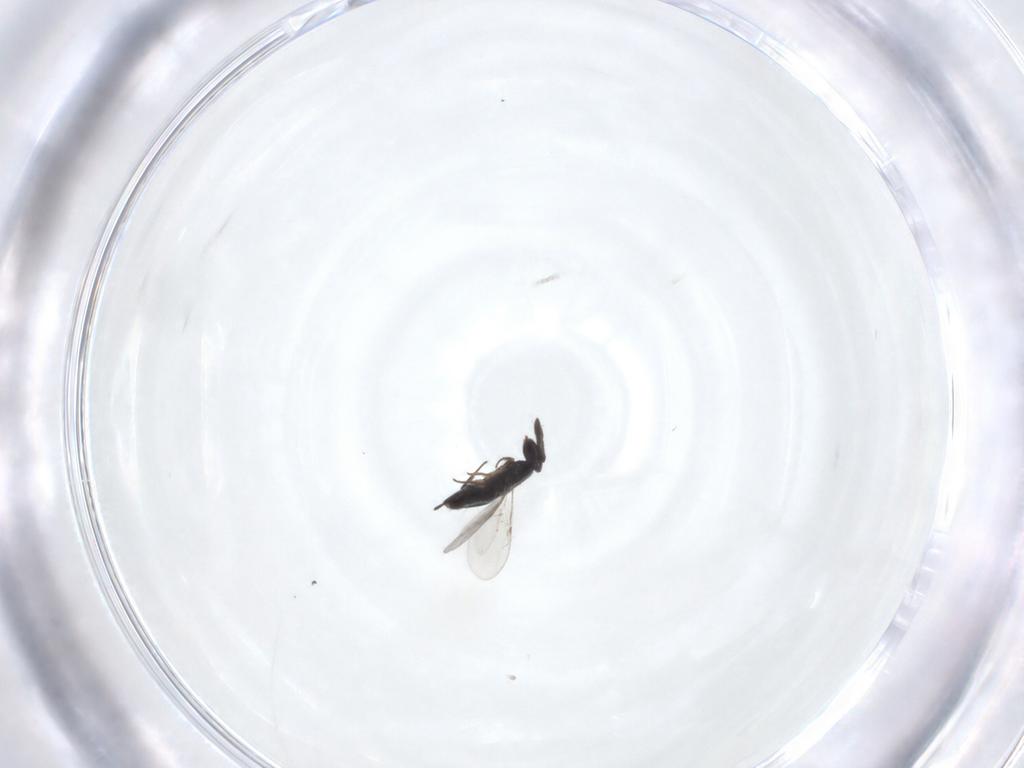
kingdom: Animalia
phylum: Arthropoda
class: Insecta
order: Hymenoptera
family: Encyrtidae
